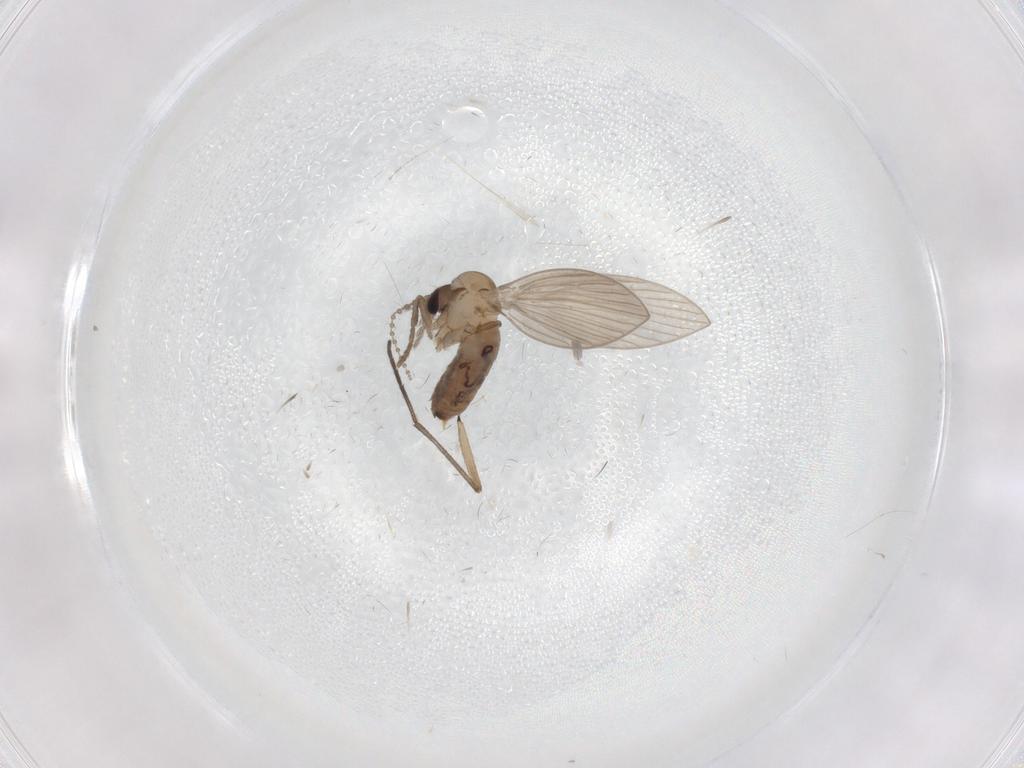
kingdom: Animalia
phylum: Arthropoda
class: Insecta
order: Diptera
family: Psychodidae
